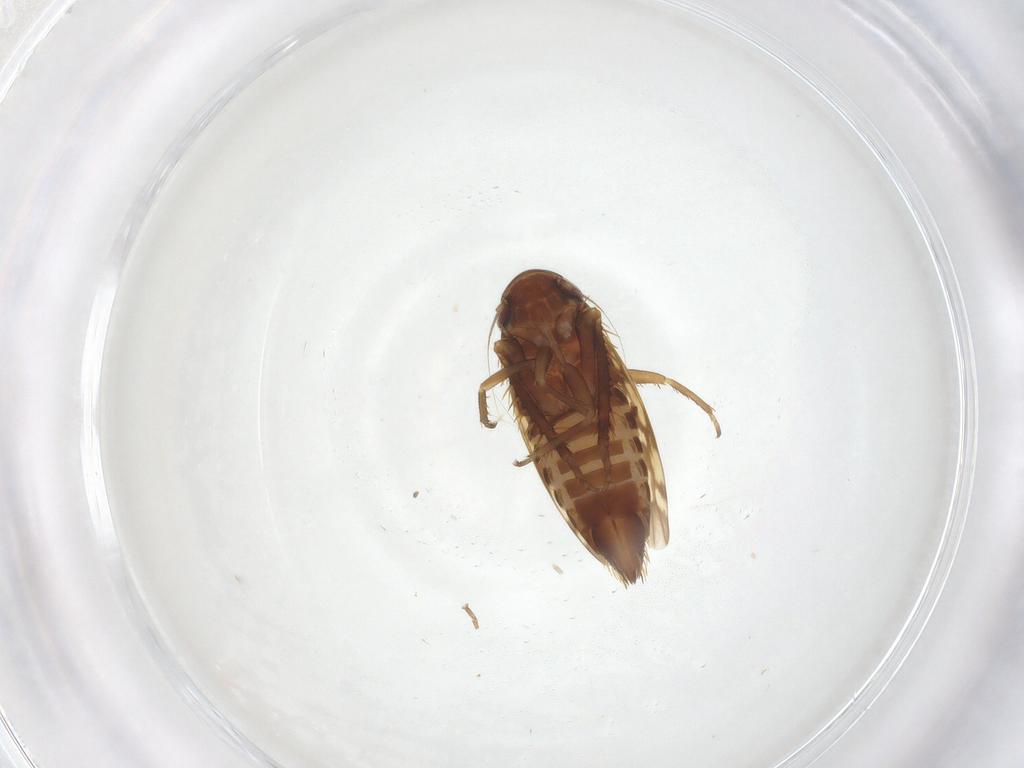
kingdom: Animalia
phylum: Arthropoda
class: Insecta
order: Hemiptera
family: Cicadellidae
